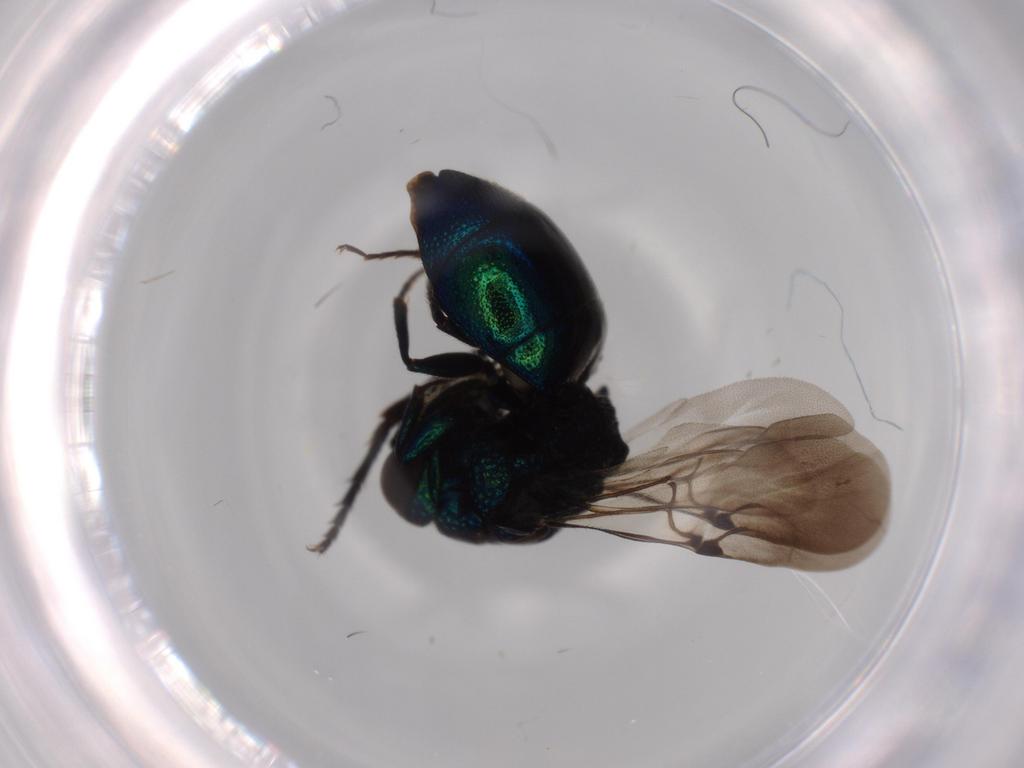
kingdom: Animalia
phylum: Arthropoda
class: Insecta
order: Hymenoptera
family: Chrysididae
